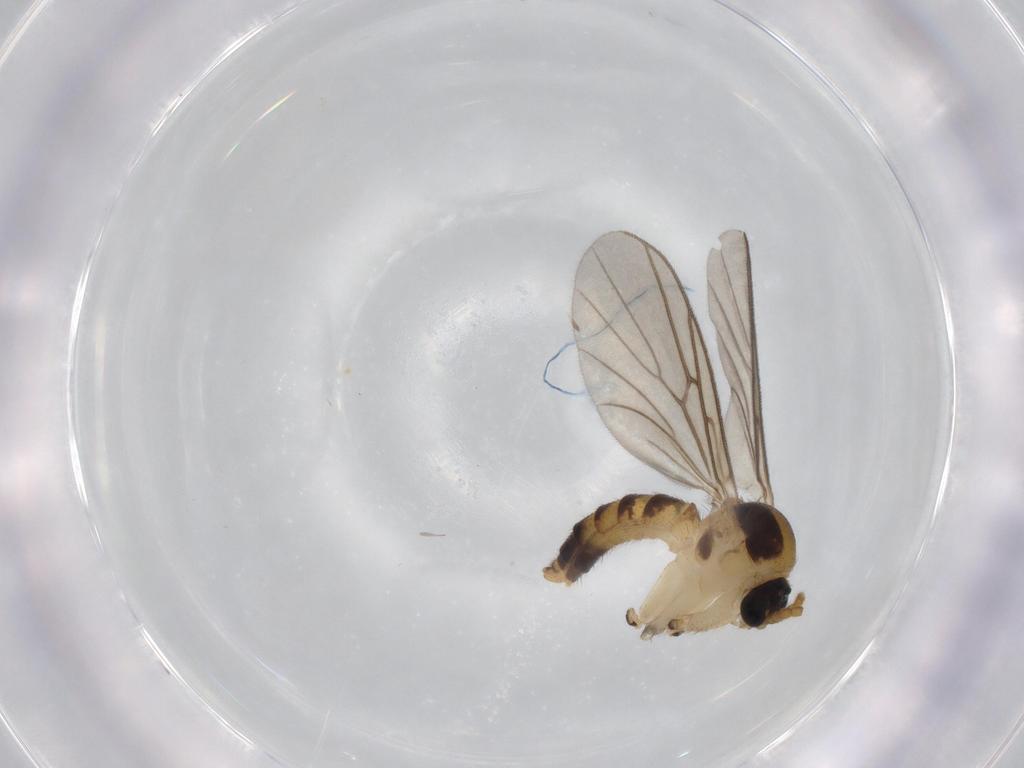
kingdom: Animalia
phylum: Arthropoda
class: Insecta
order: Diptera
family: Chironomidae
